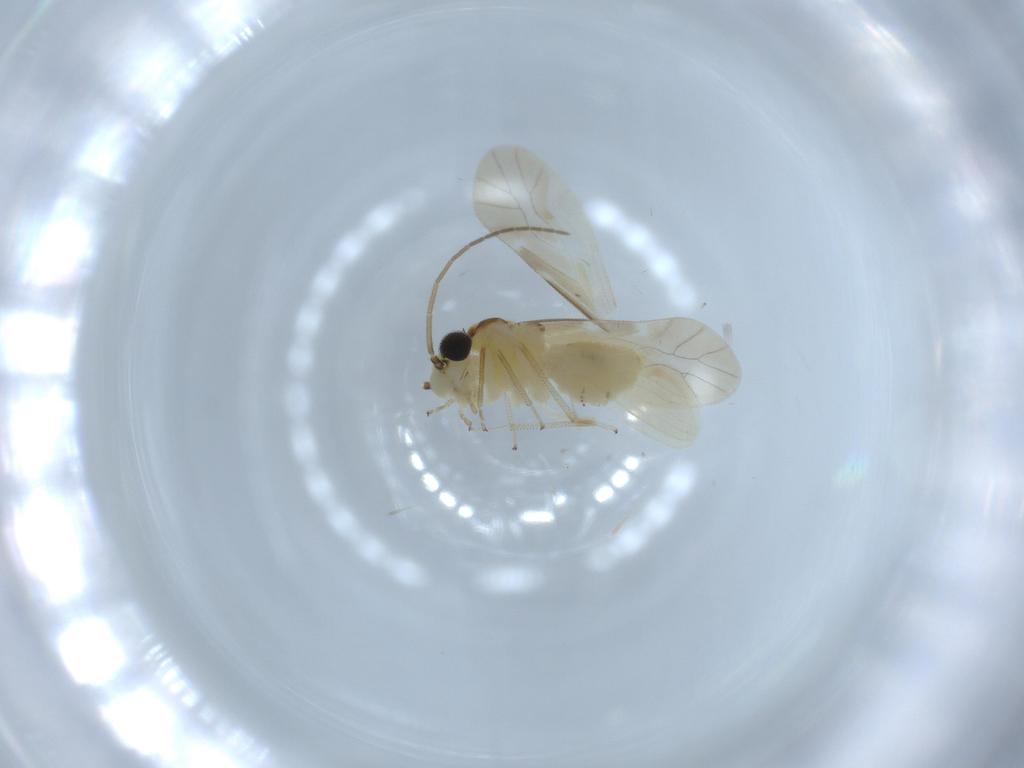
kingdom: Animalia
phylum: Arthropoda
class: Insecta
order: Psocodea
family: Caeciliusidae
